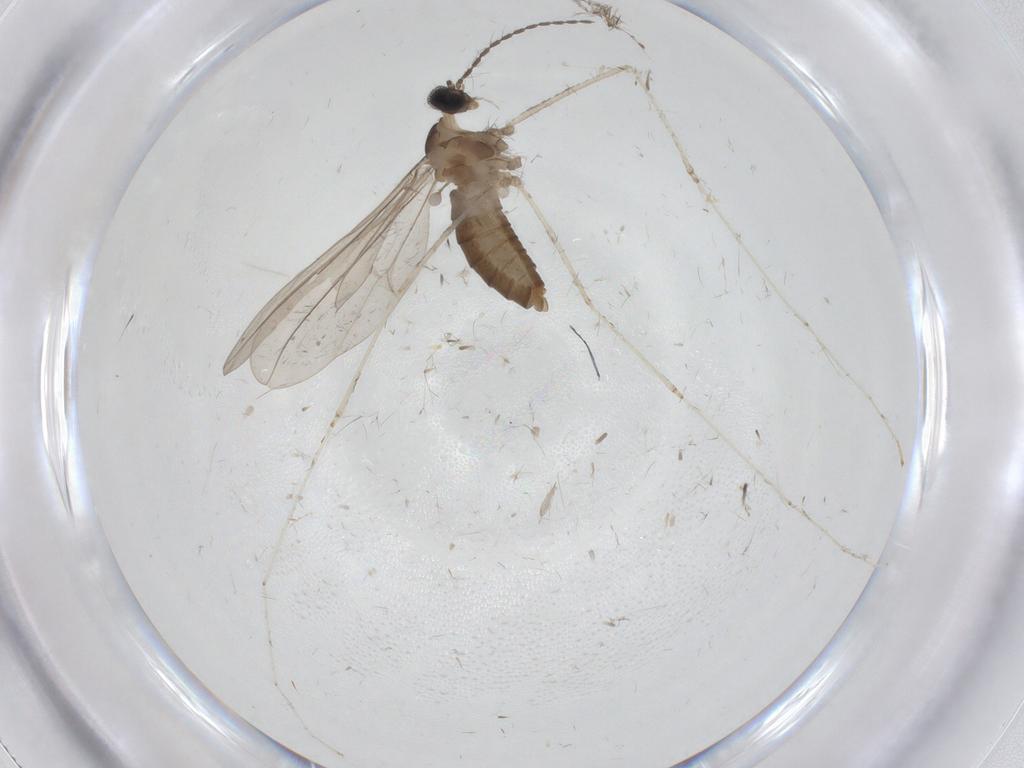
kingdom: Animalia
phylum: Arthropoda
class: Insecta
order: Diptera
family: Cecidomyiidae
